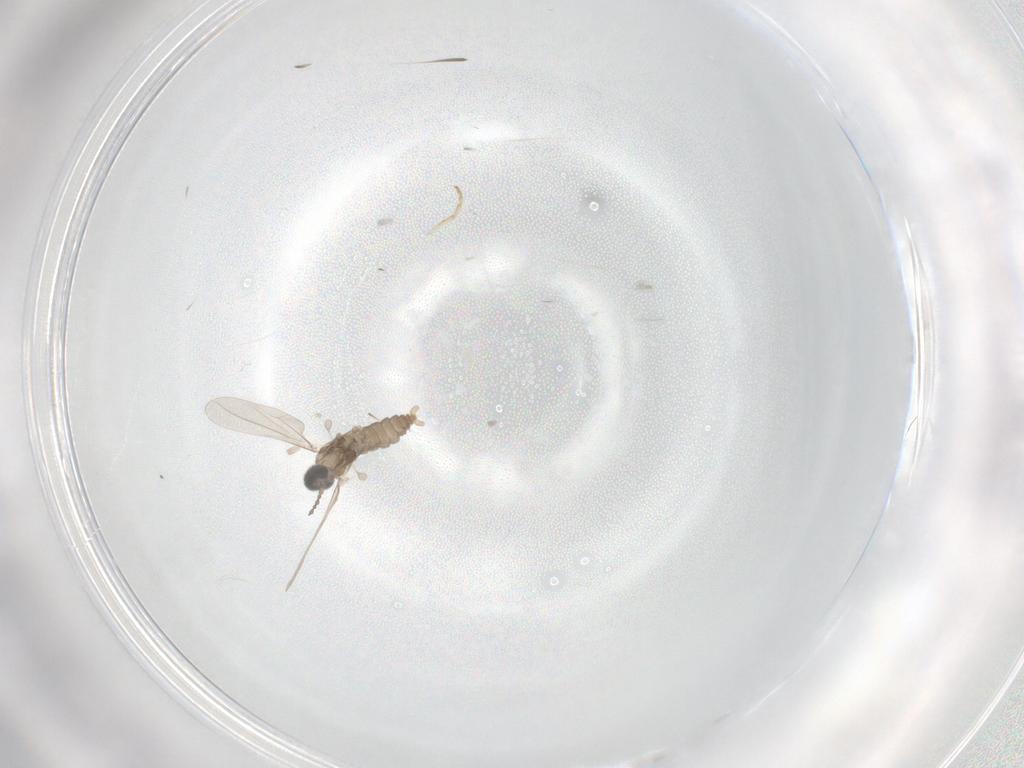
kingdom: Animalia
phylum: Arthropoda
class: Insecta
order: Diptera
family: Cecidomyiidae
